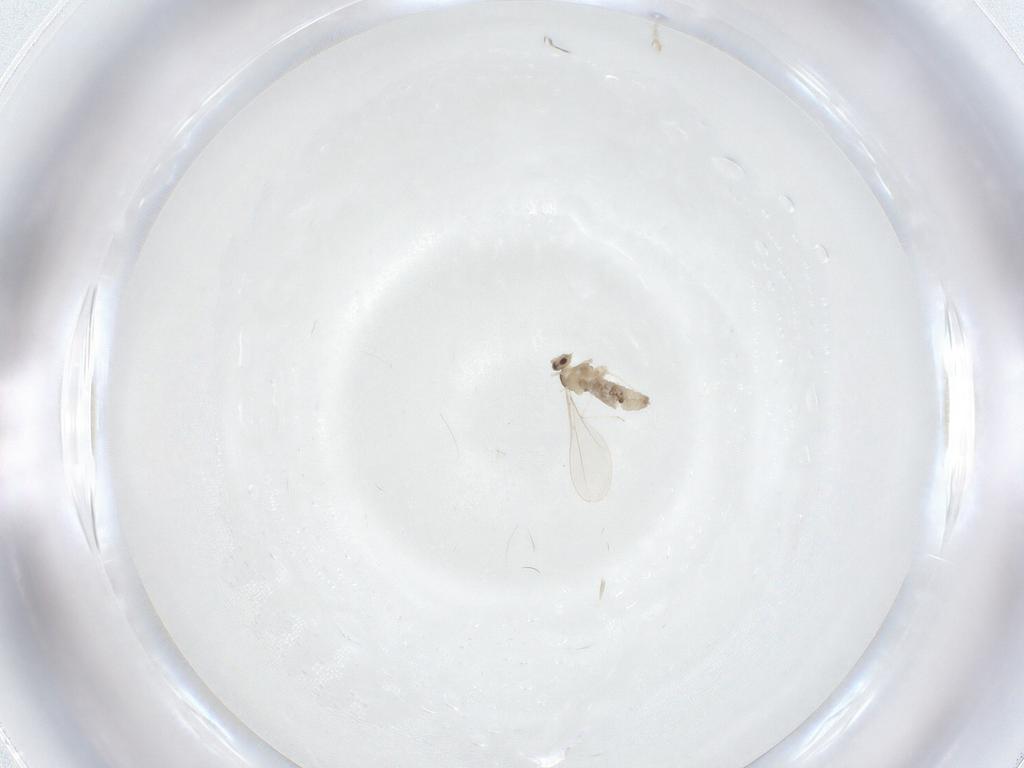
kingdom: Animalia
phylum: Arthropoda
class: Insecta
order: Diptera
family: Cecidomyiidae
